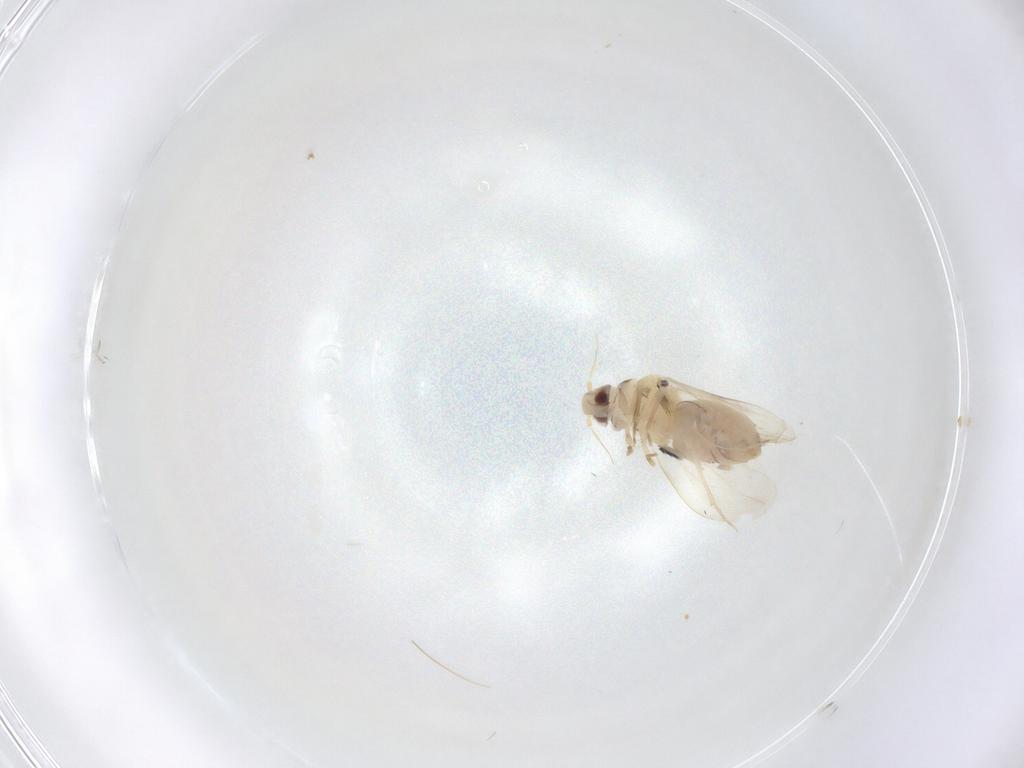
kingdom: Animalia
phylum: Arthropoda
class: Insecta
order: Hemiptera
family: Aleyrodidae
